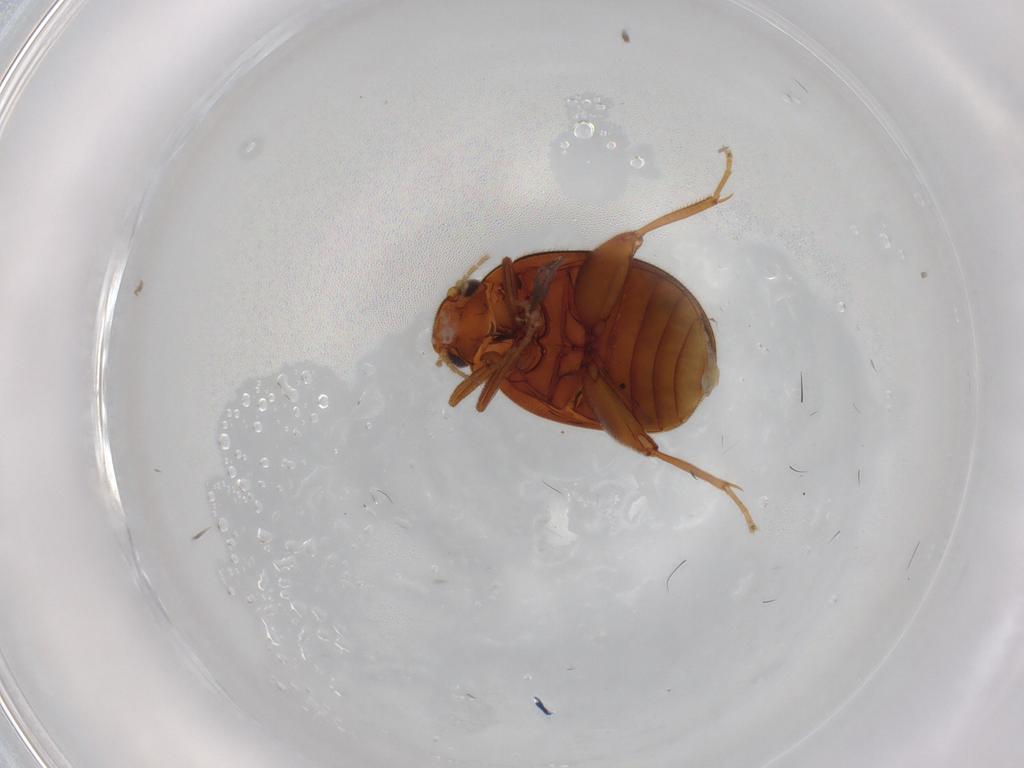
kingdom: Animalia
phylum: Arthropoda
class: Insecta
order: Coleoptera
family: Scirtidae
